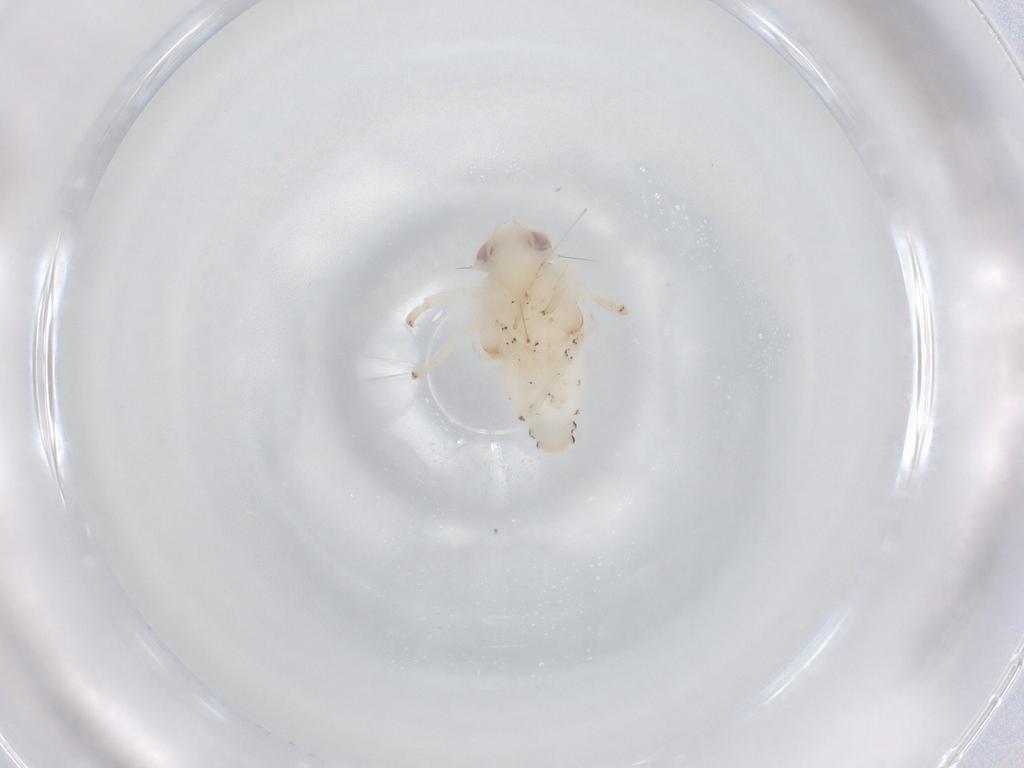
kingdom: Animalia
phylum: Arthropoda
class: Insecta
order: Hemiptera
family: Nogodinidae
